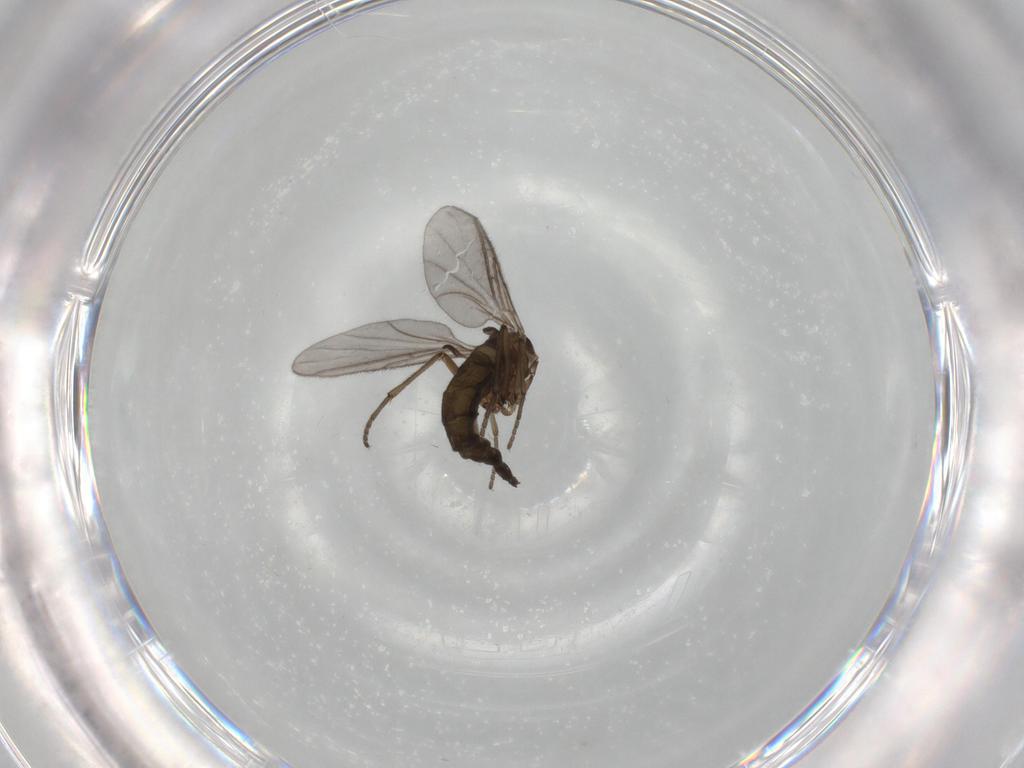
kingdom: Animalia
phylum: Arthropoda
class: Insecta
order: Diptera
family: Sciaridae
